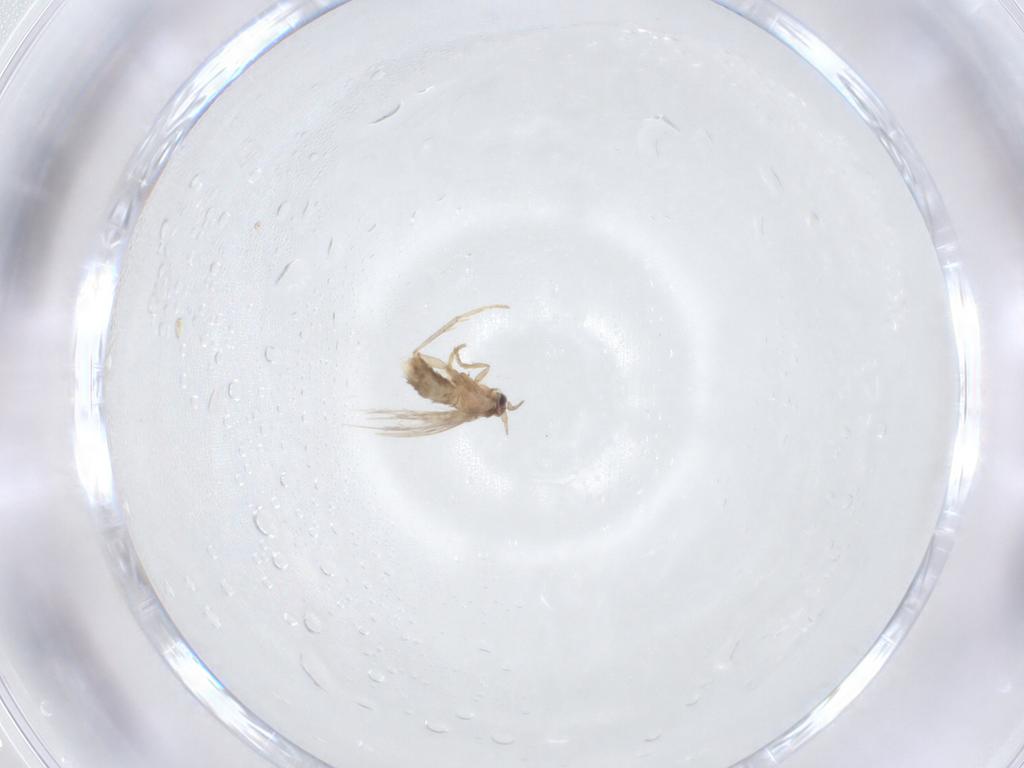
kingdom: Animalia
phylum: Arthropoda
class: Insecta
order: Lepidoptera
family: Nepticulidae
